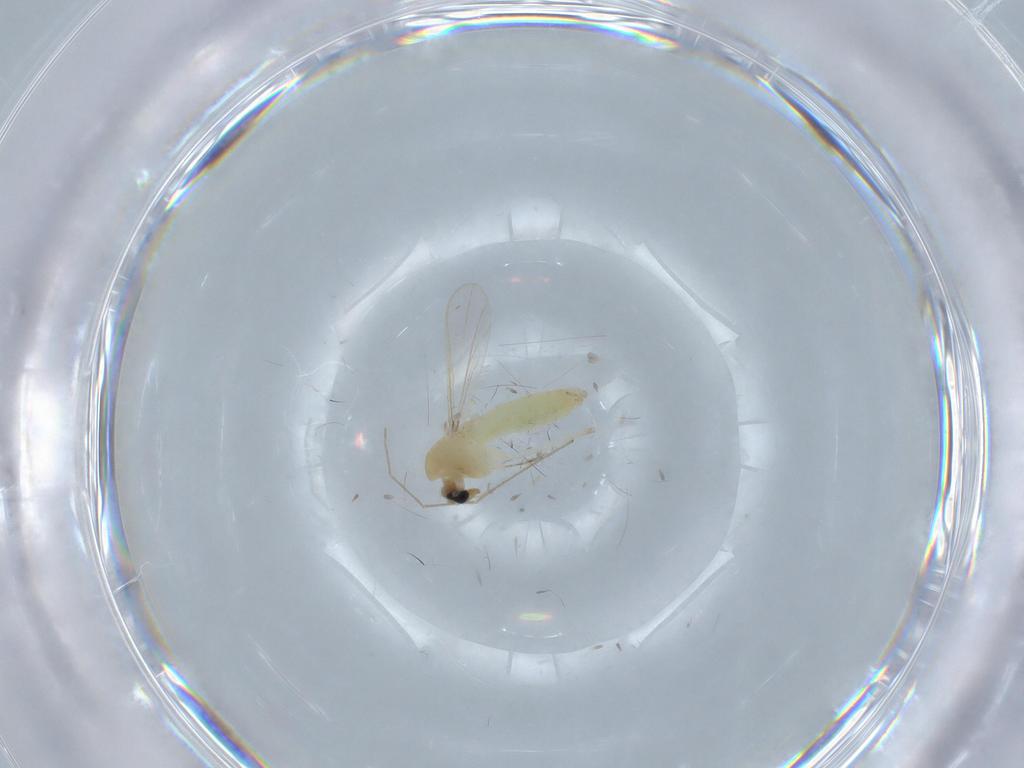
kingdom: Animalia
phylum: Arthropoda
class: Insecta
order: Diptera
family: Chironomidae
